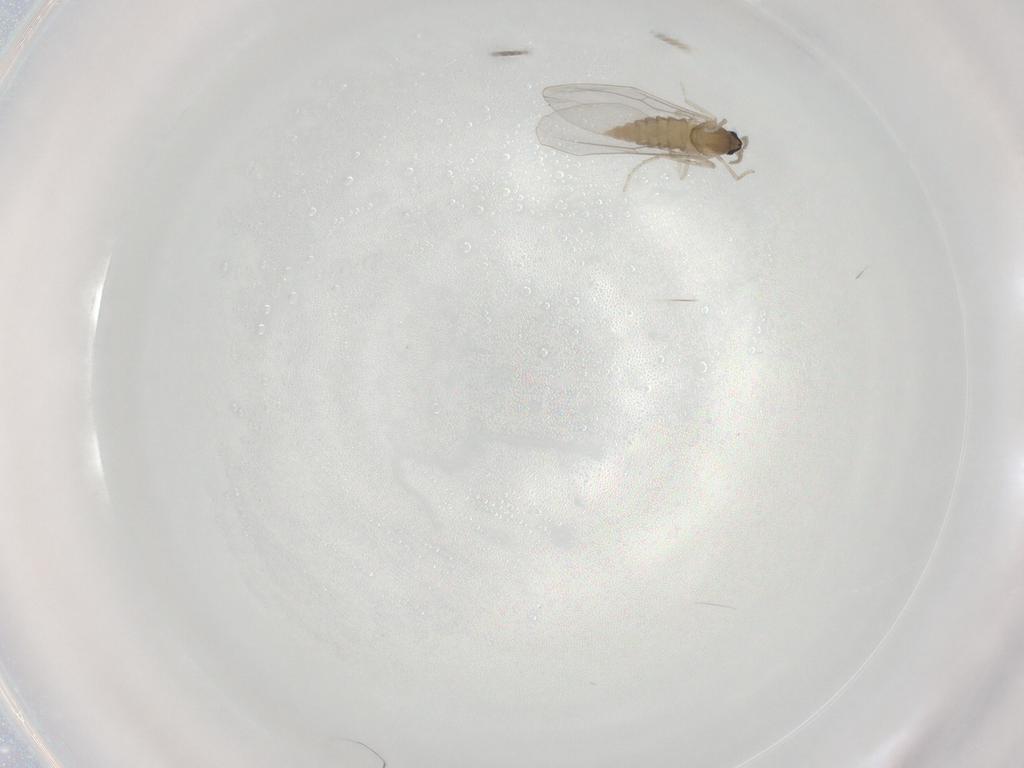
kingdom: Animalia
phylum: Arthropoda
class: Insecta
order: Diptera
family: Cecidomyiidae
